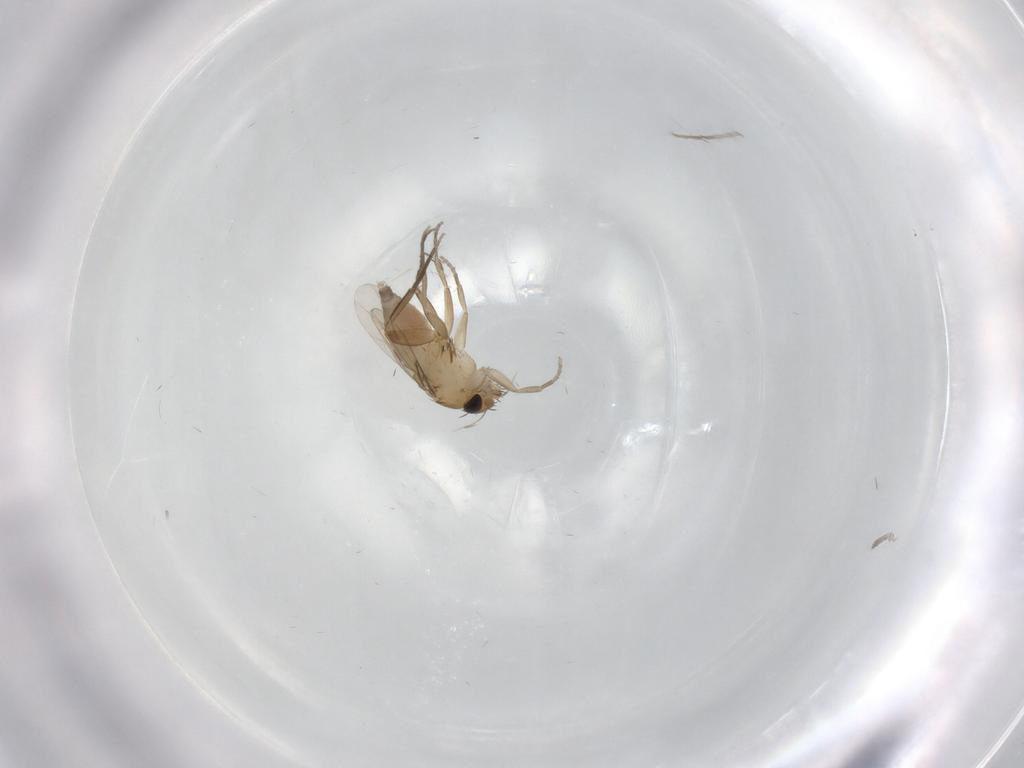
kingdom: Animalia
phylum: Arthropoda
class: Insecta
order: Diptera
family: Phoridae
